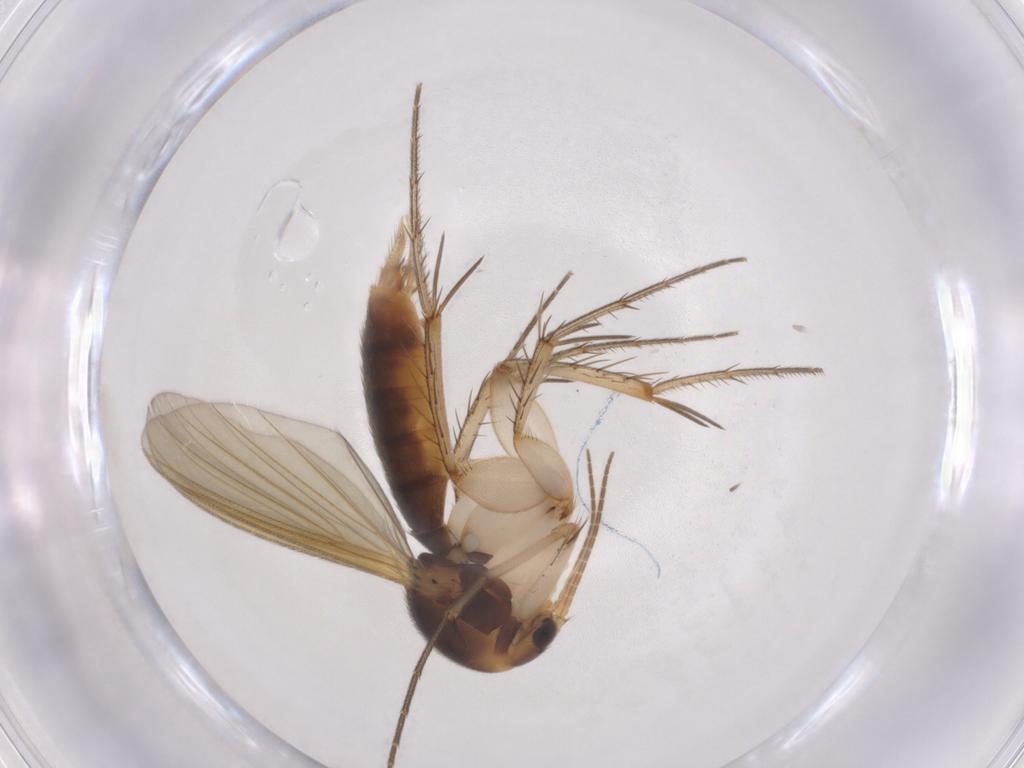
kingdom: Animalia
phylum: Arthropoda
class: Insecta
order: Diptera
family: Mycetophilidae
